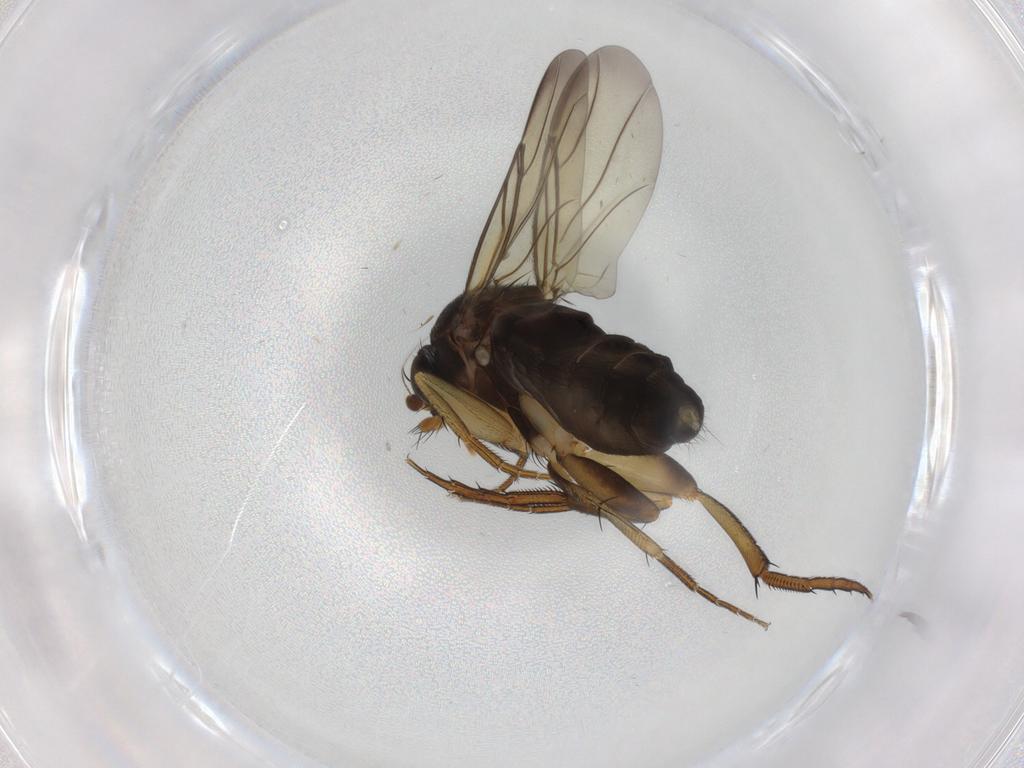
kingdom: Animalia
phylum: Arthropoda
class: Insecta
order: Diptera
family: Phoridae
